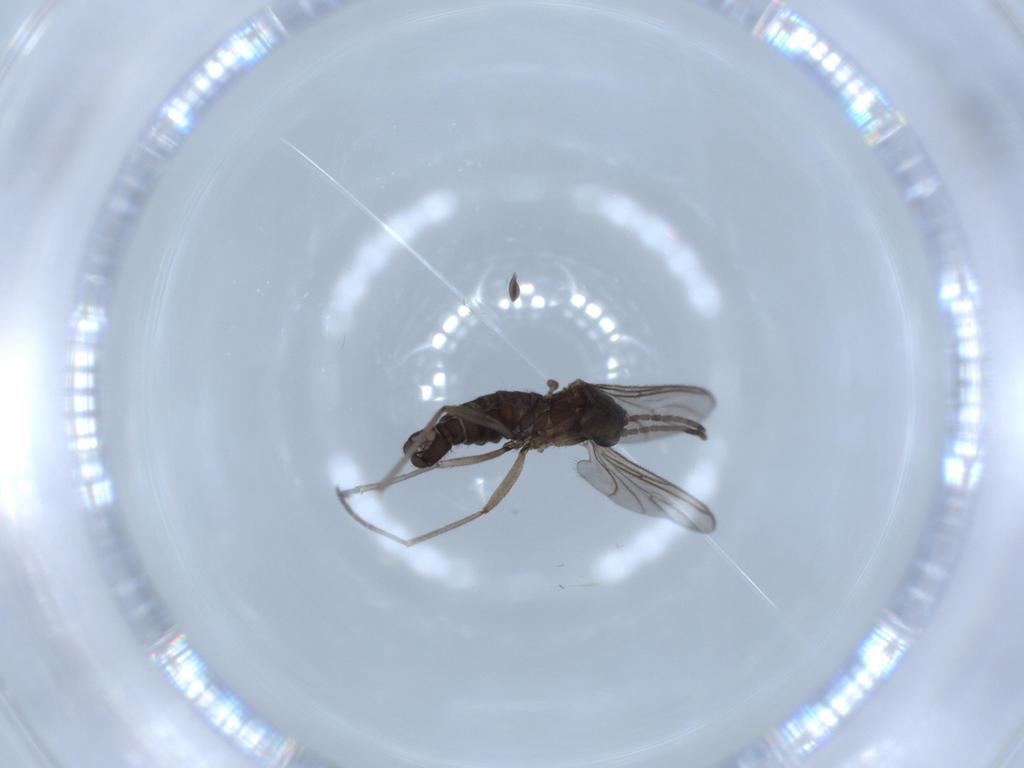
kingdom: Animalia
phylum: Arthropoda
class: Insecta
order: Diptera
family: Sciaridae
